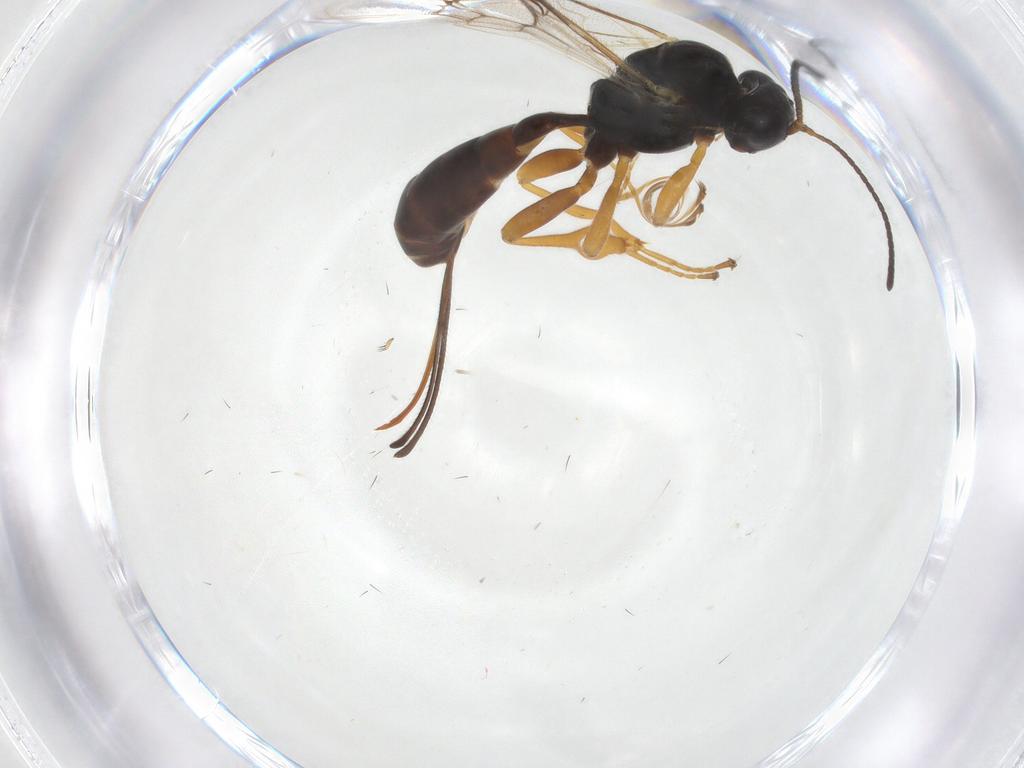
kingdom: Animalia
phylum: Arthropoda
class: Insecta
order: Hymenoptera
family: Ichneumonidae
